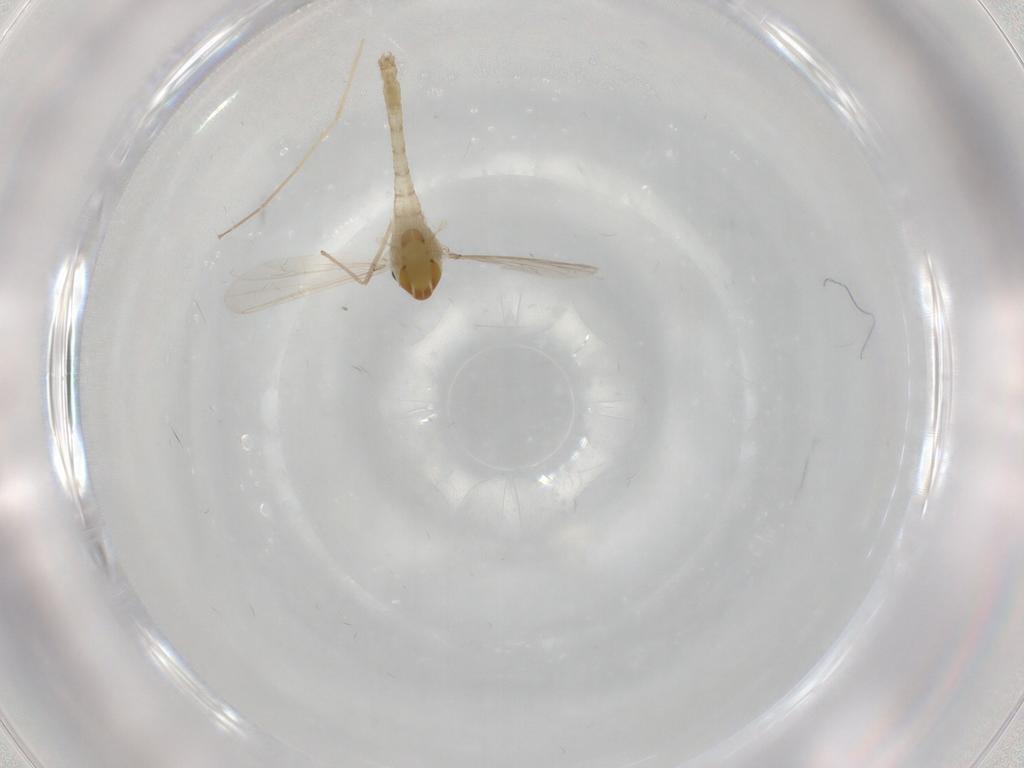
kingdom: Animalia
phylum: Arthropoda
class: Insecta
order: Diptera
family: Chironomidae
